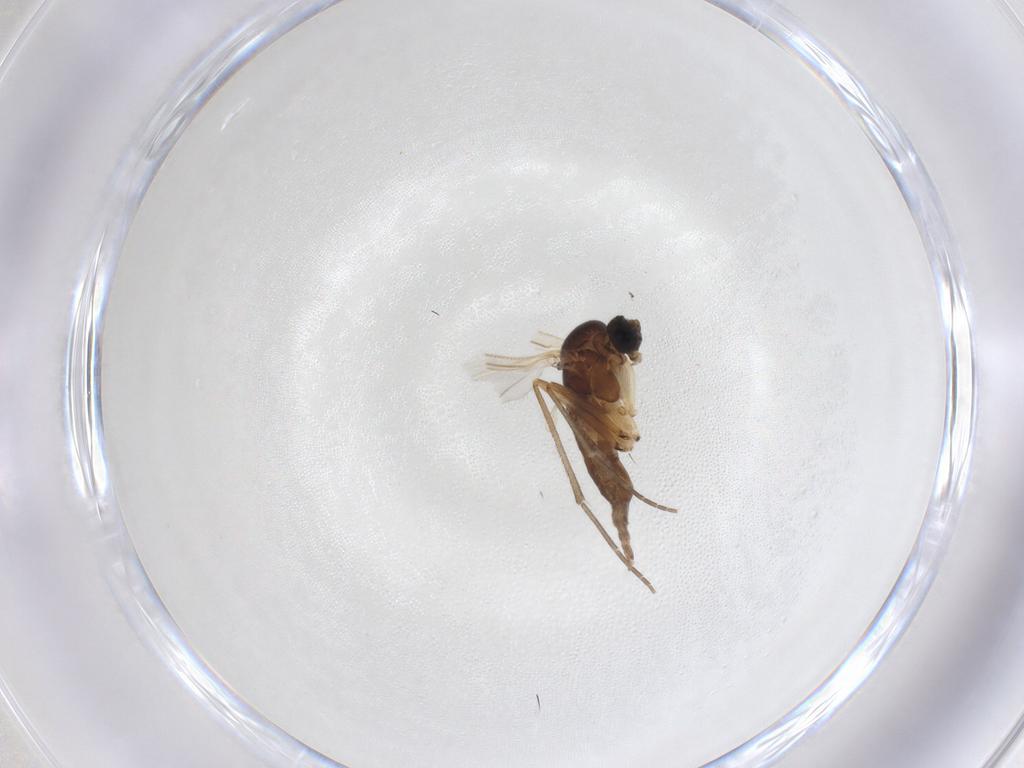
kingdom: Animalia
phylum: Arthropoda
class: Insecta
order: Diptera
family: Sciaridae
